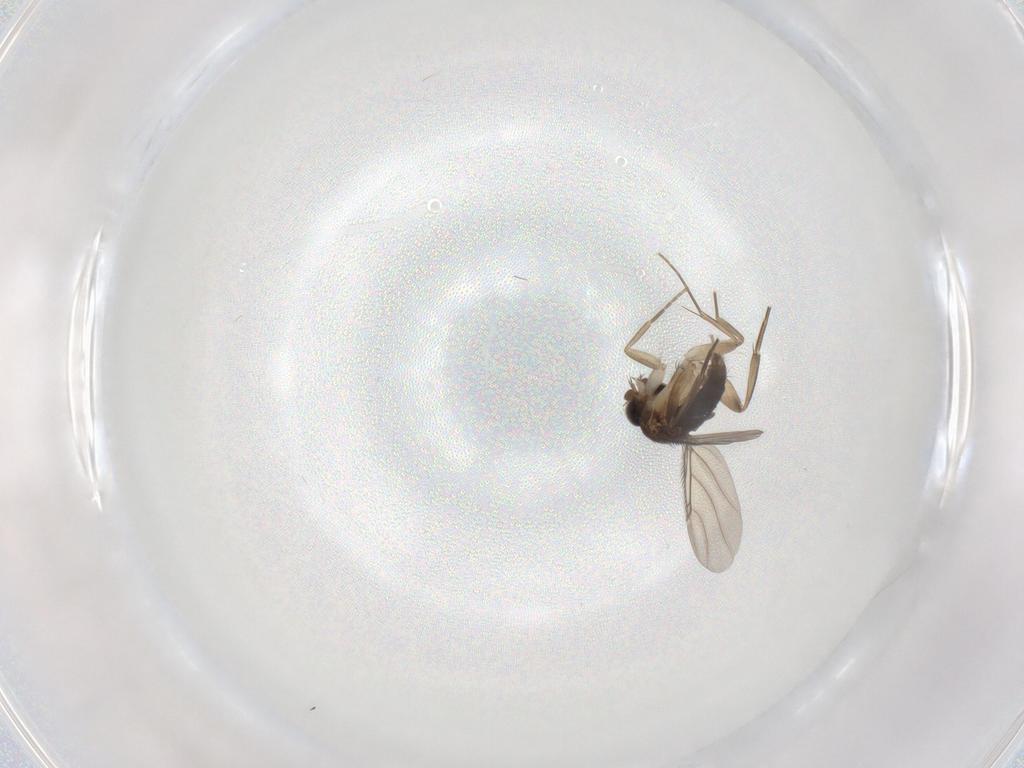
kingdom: Animalia
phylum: Arthropoda
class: Insecta
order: Diptera
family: Phoridae
